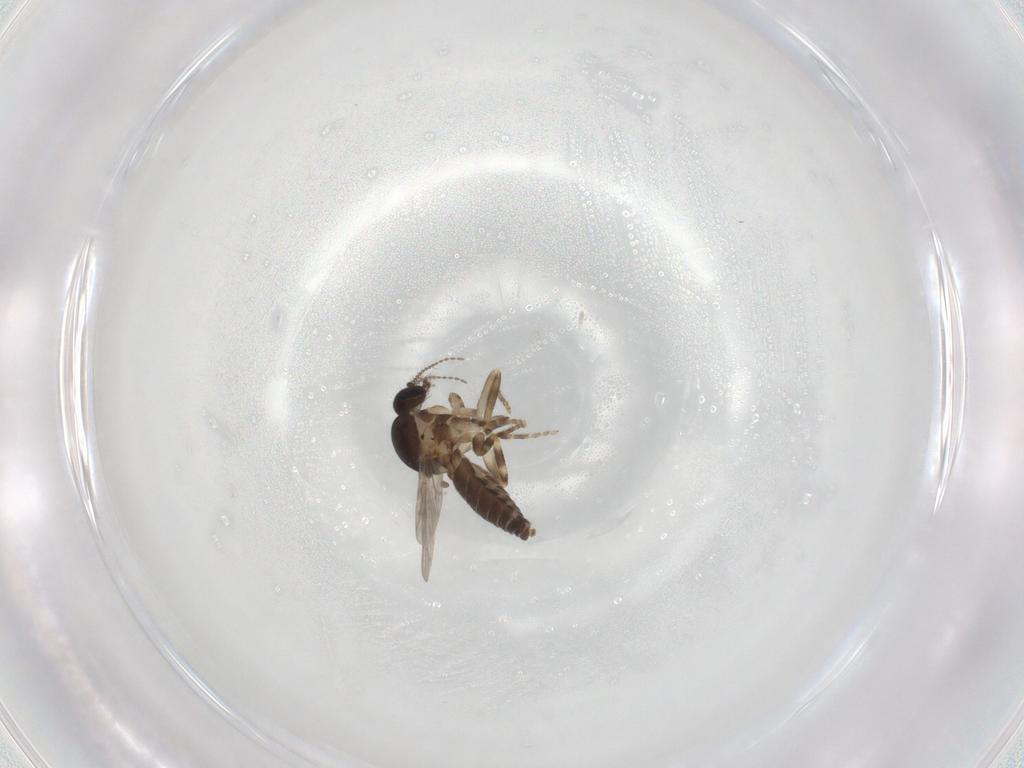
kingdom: Animalia
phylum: Arthropoda
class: Insecta
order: Diptera
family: Ceratopogonidae
